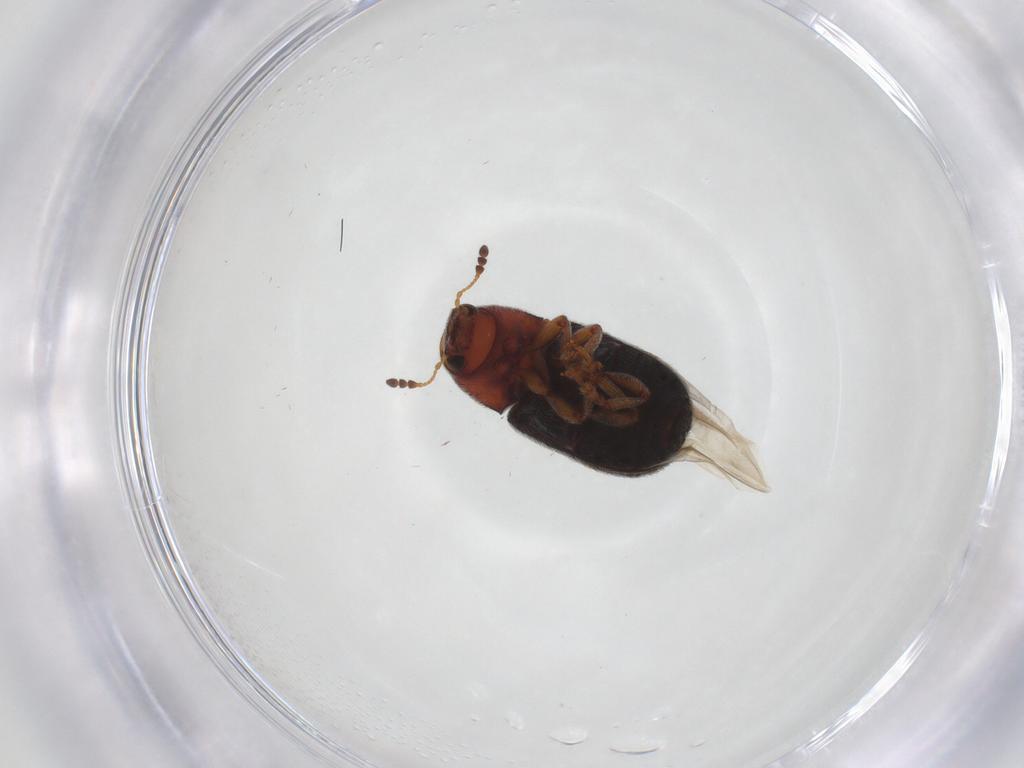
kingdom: Animalia
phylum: Arthropoda
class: Insecta
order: Coleoptera
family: Anthribidae
